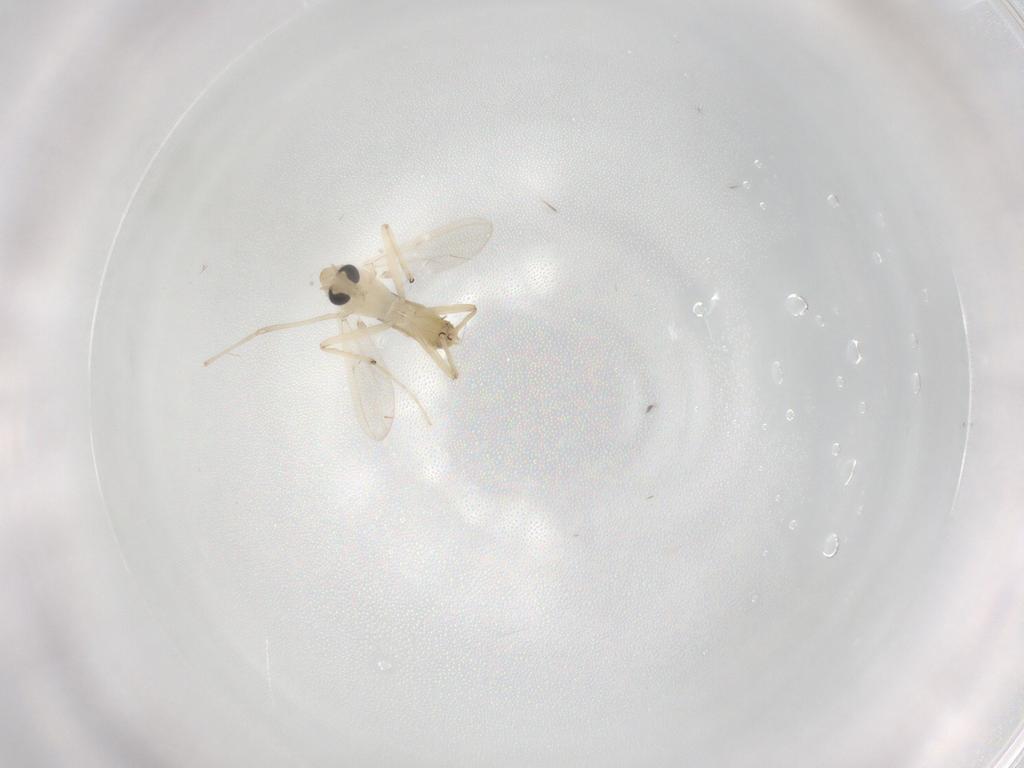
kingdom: Animalia
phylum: Arthropoda
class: Insecta
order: Diptera
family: Chironomidae
